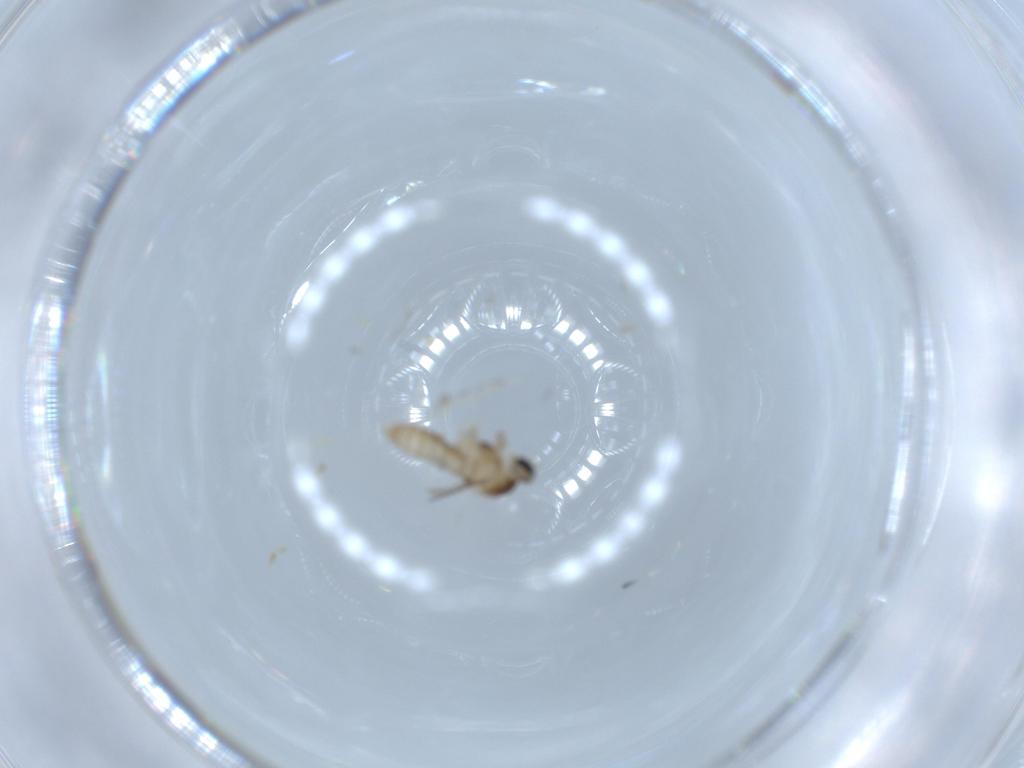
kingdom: Animalia
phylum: Arthropoda
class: Insecta
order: Diptera
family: Cecidomyiidae
